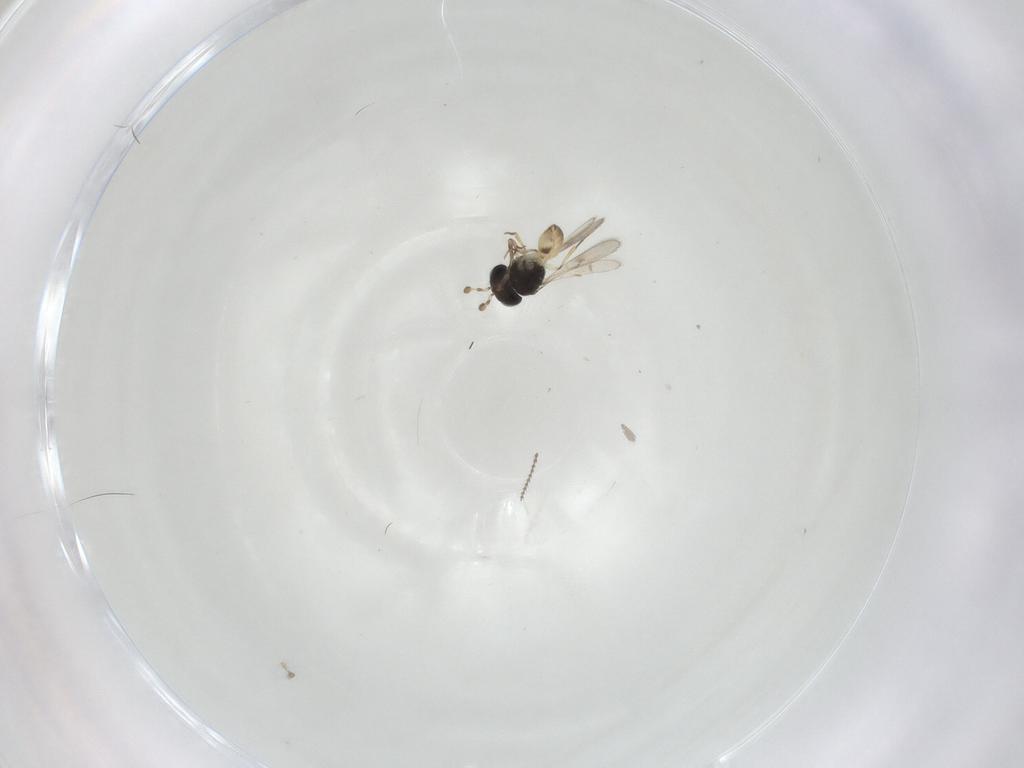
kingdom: Animalia
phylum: Arthropoda
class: Insecta
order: Hymenoptera
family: Scelionidae
